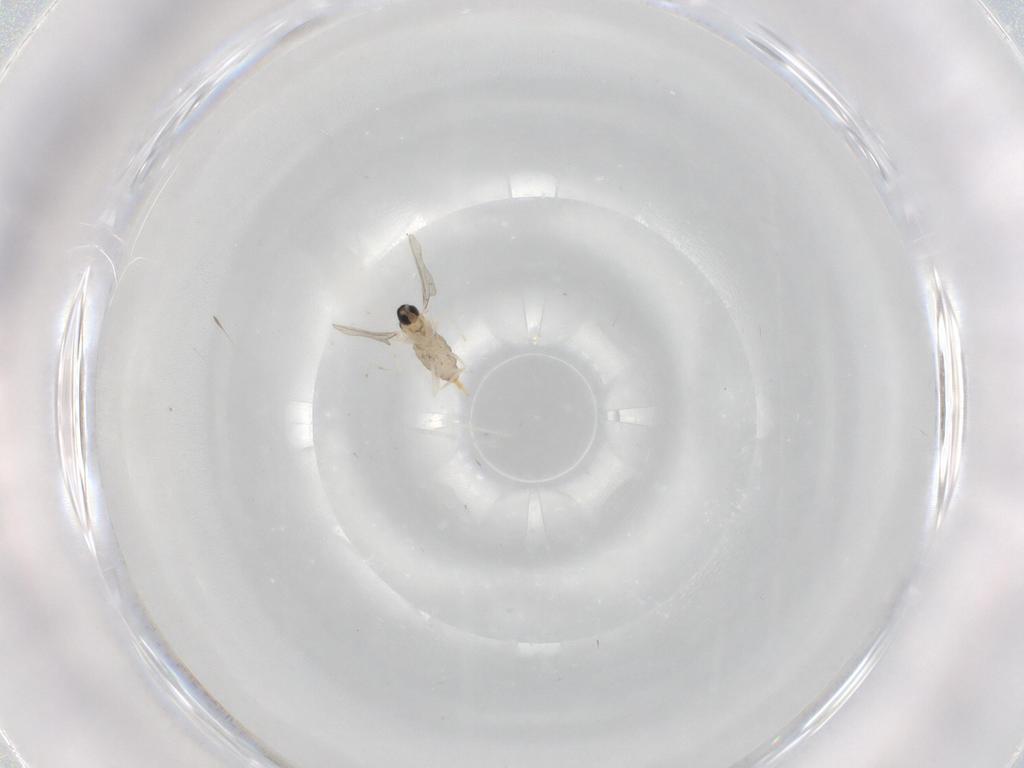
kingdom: Animalia
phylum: Arthropoda
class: Insecta
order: Diptera
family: Cecidomyiidae
